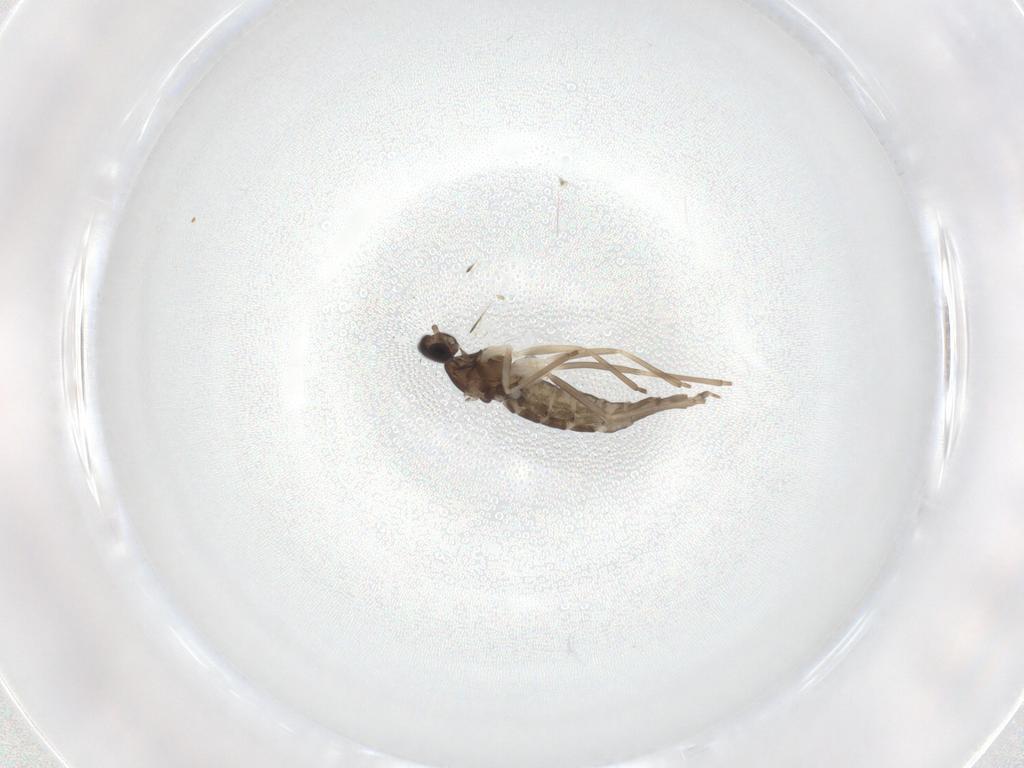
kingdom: Animalia
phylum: Arthropoda
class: Insecta
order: Diptera
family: Cecidomyiidae
